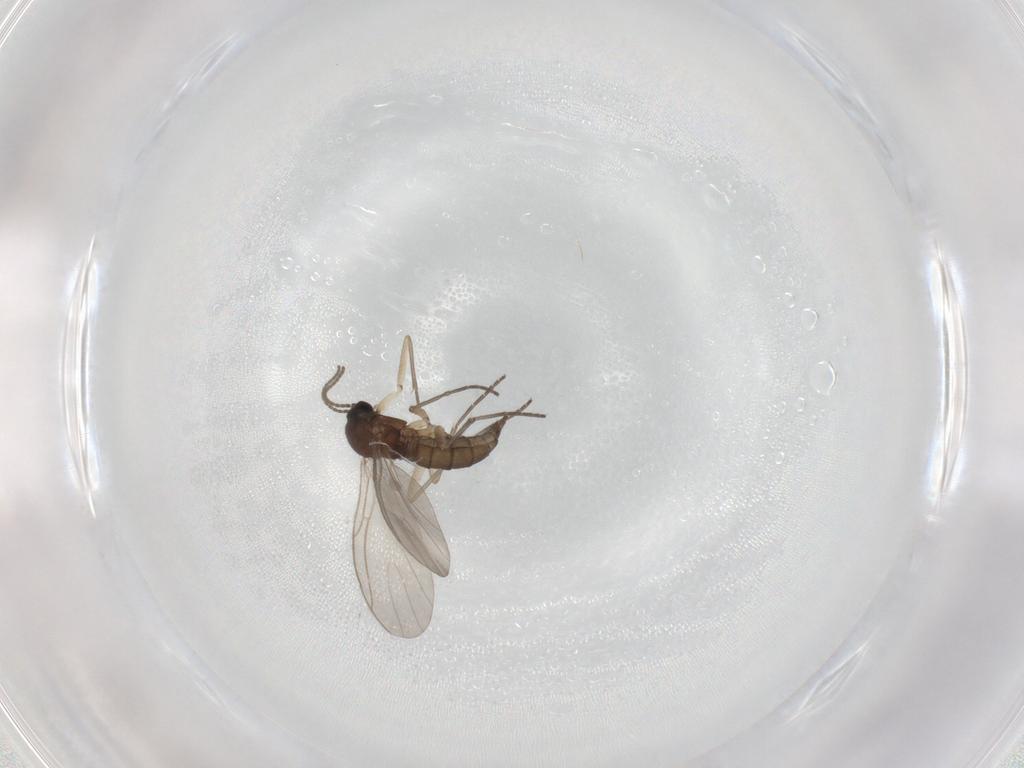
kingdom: Animalia
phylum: Arthropoda
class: Insecta
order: Diptera
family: Sciaridae
